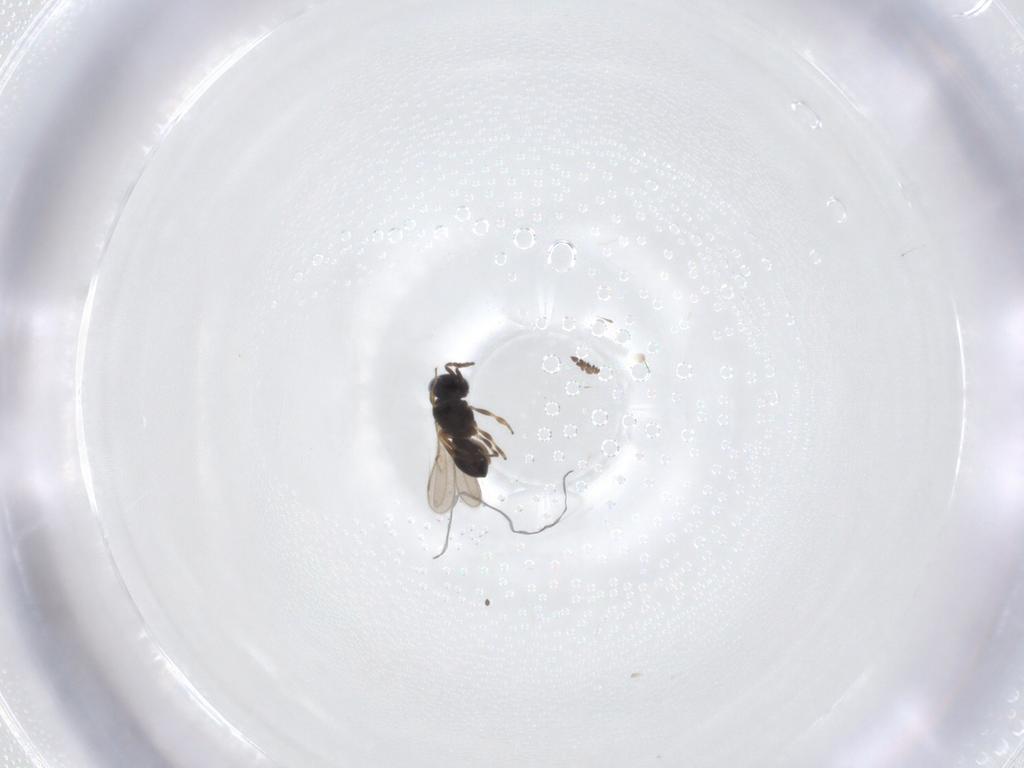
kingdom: Animalia
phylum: Arthropoda
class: Insecta
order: Hymenoptera
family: Scelionidae
